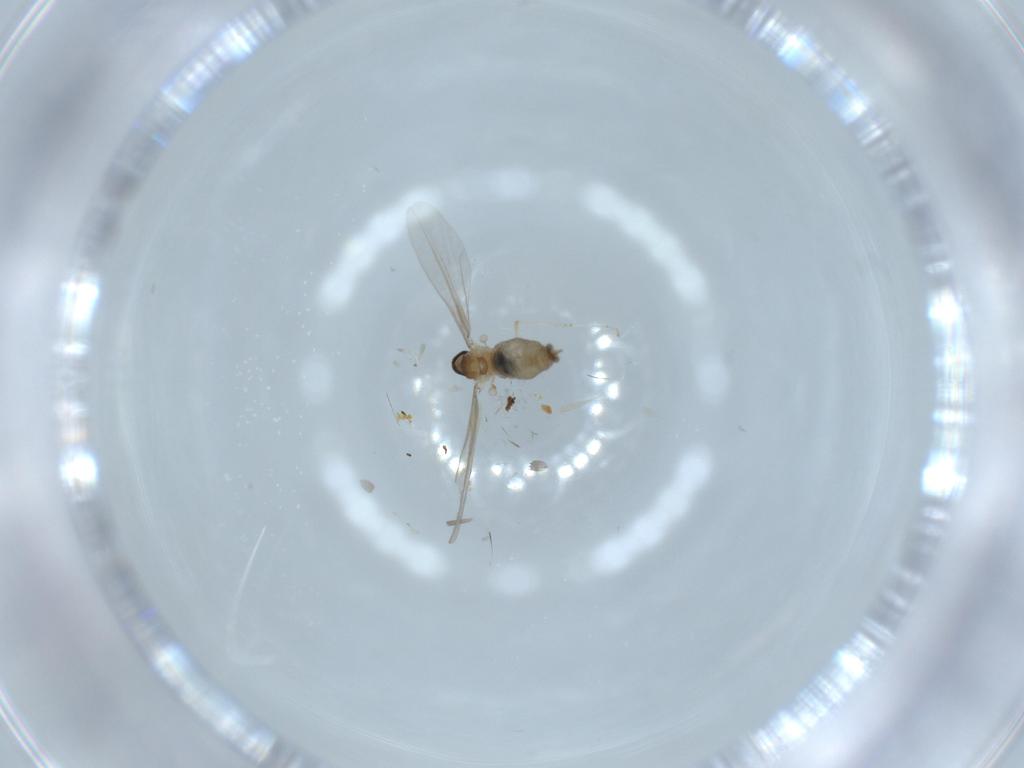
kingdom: Animalia
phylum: Arthropoda
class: Insecta
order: Diptera
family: Cecidomyiidae
